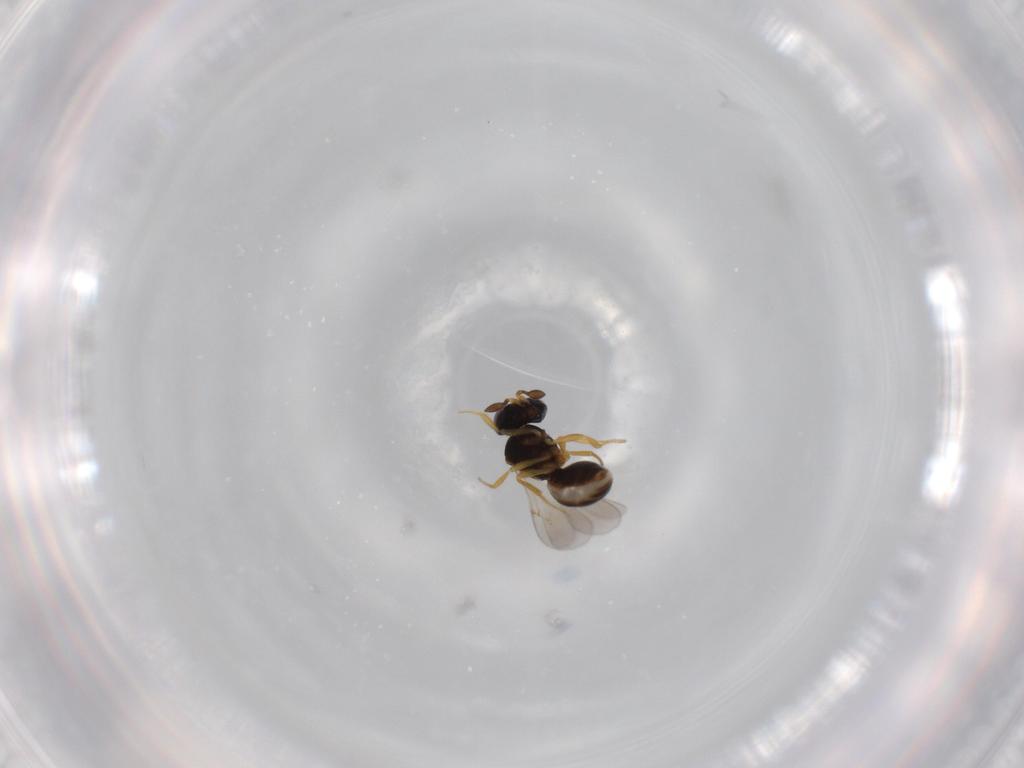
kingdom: Animalia
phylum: Arthropoda
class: Insecta
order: Hymenoptera
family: Scelionidae
